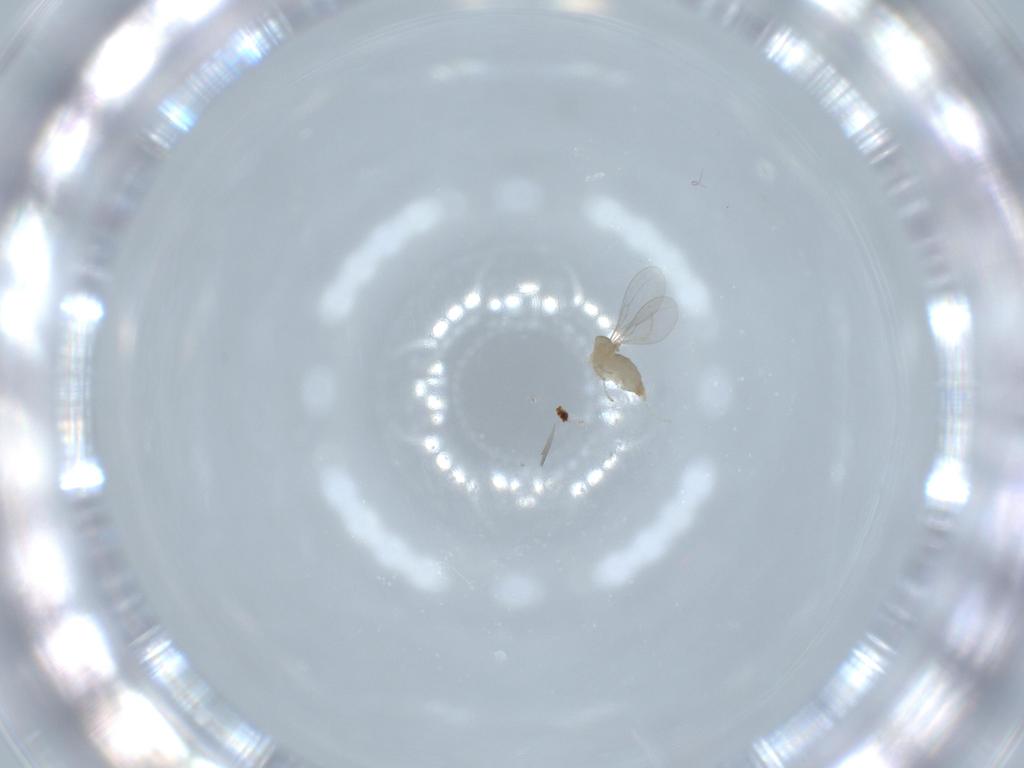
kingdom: Animalia
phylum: Arthropoda
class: Insecta
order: Diptera
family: Cecidomyiidae
